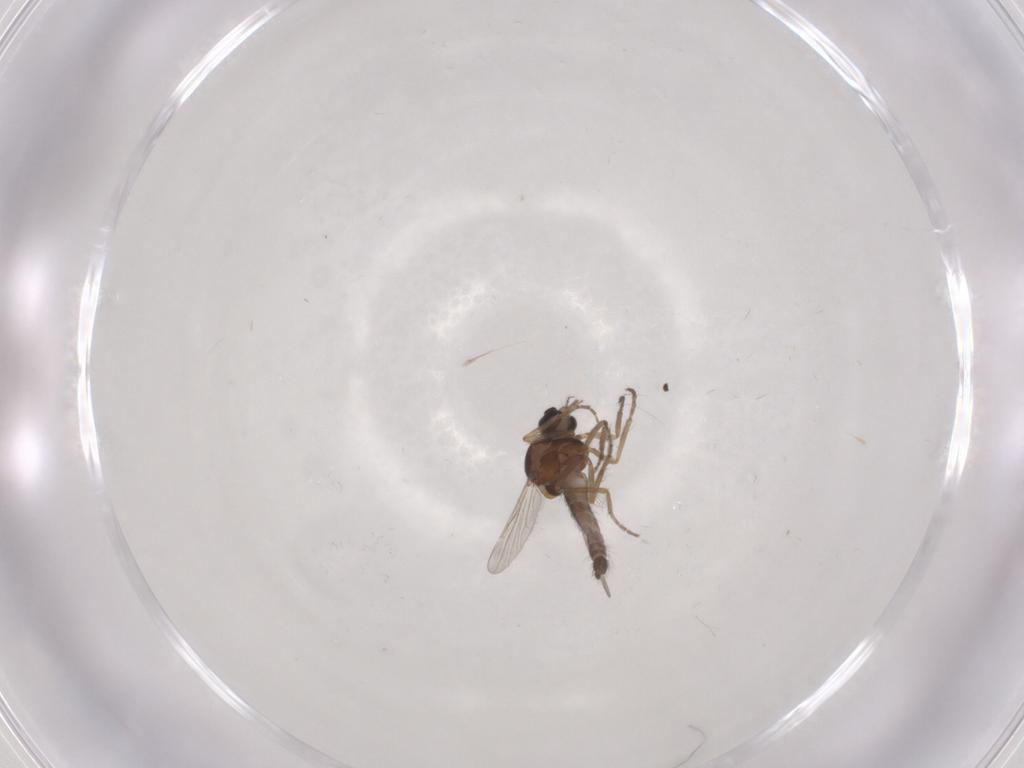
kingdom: Animalia
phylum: Arthropoda
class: Insecta
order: Diptera
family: Ceratopogonidae
